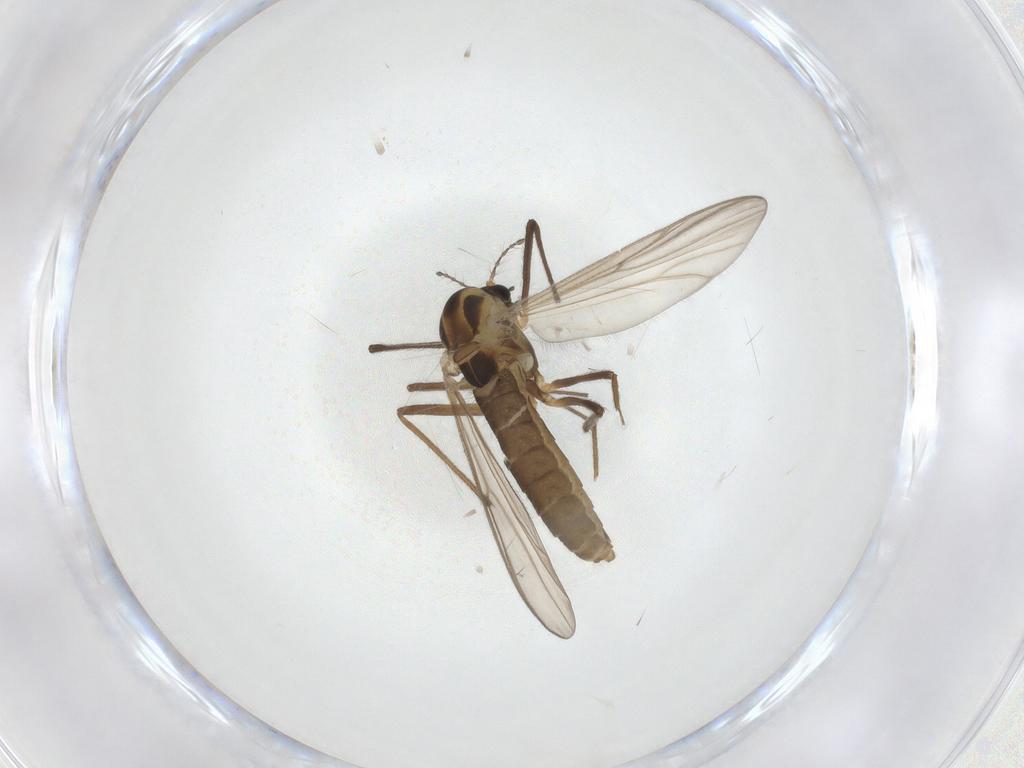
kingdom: Animalia
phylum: Arthropoda
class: Insecta
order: Diptera
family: Chironomidae
